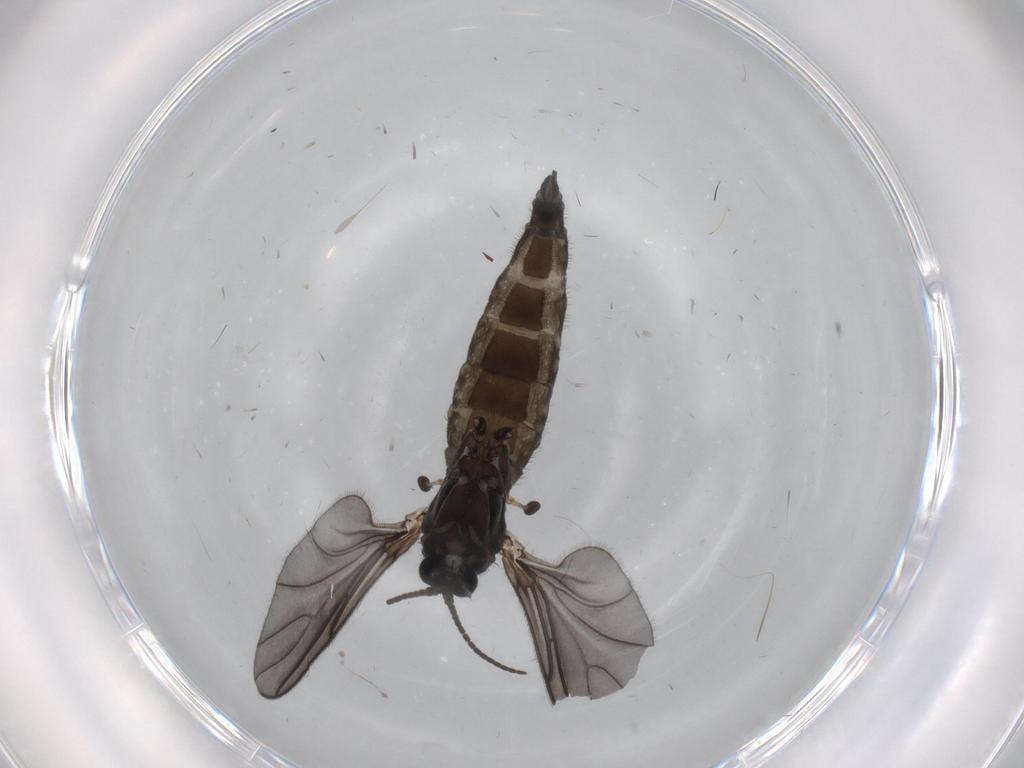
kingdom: Animalia
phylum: Arthropoda
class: Insecta
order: Diptera
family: Sciaridae
